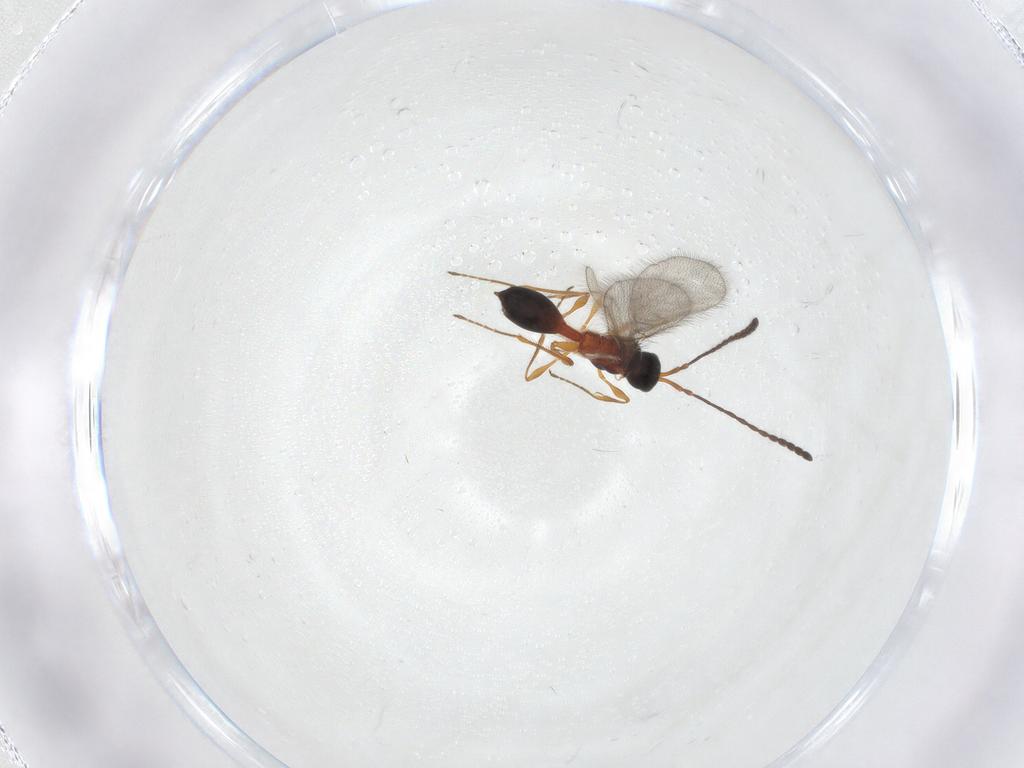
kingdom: Animalia
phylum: Arthropoda
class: Insecta
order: Hymenoptera
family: Diapriidae
